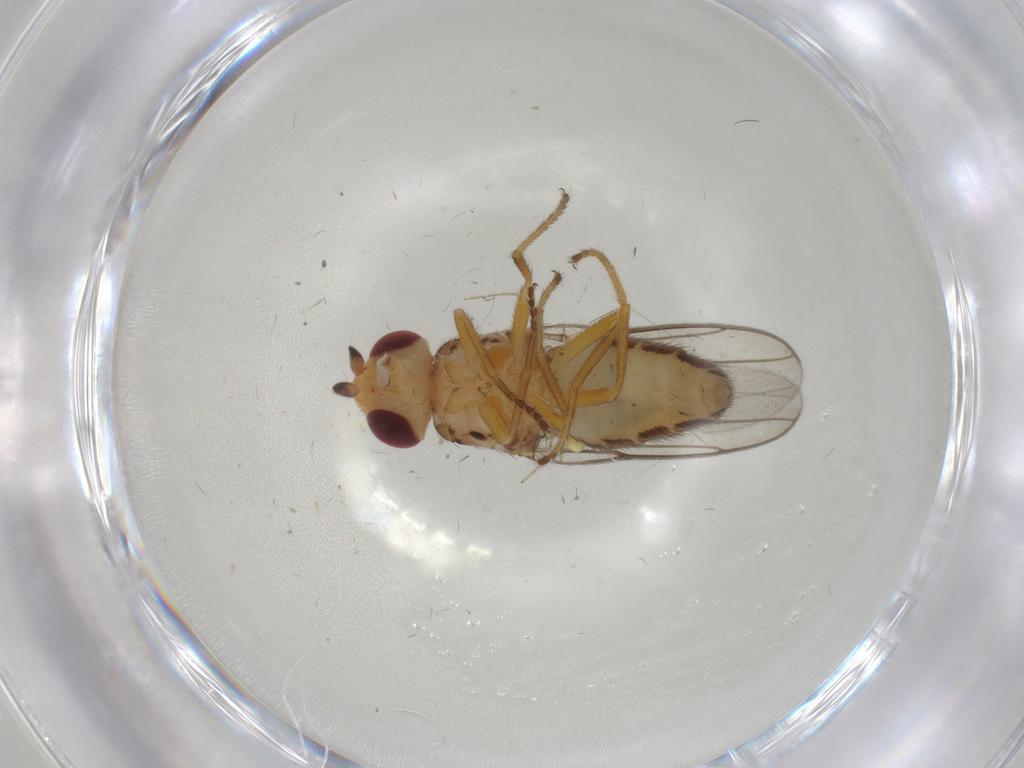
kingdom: Animalia
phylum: Arthropoda
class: Insecta
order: Diptera
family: Chloropidae
